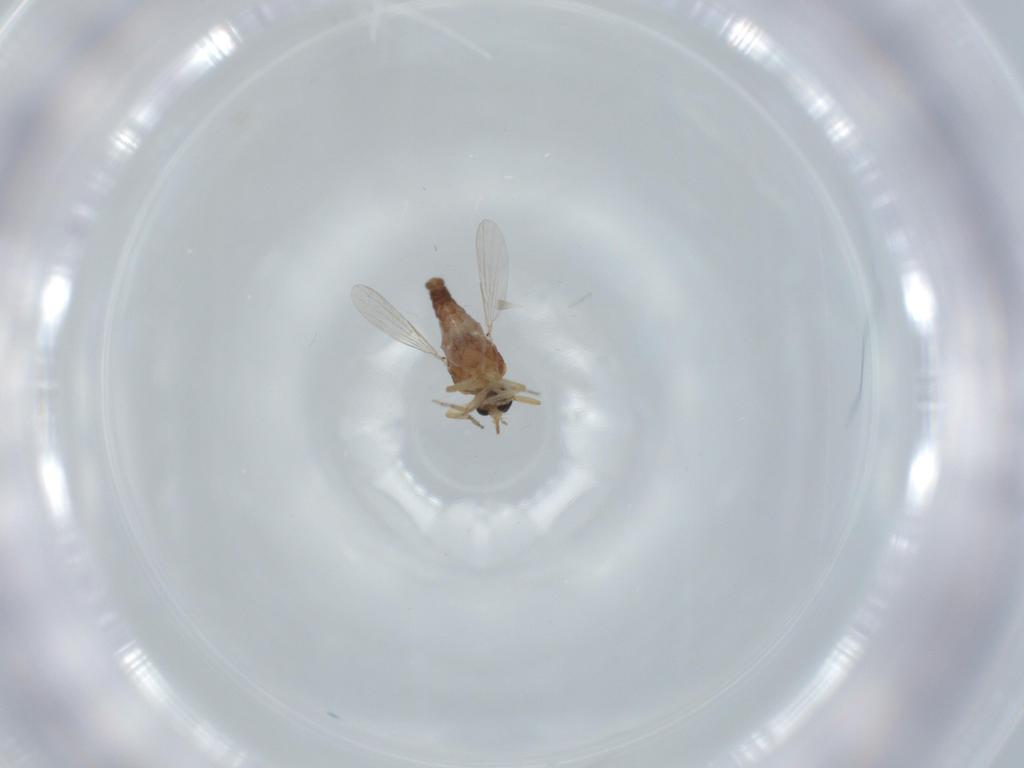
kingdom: Animalia
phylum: Arthropoda
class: Insecta
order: Diptera
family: Ceratopogonidae
